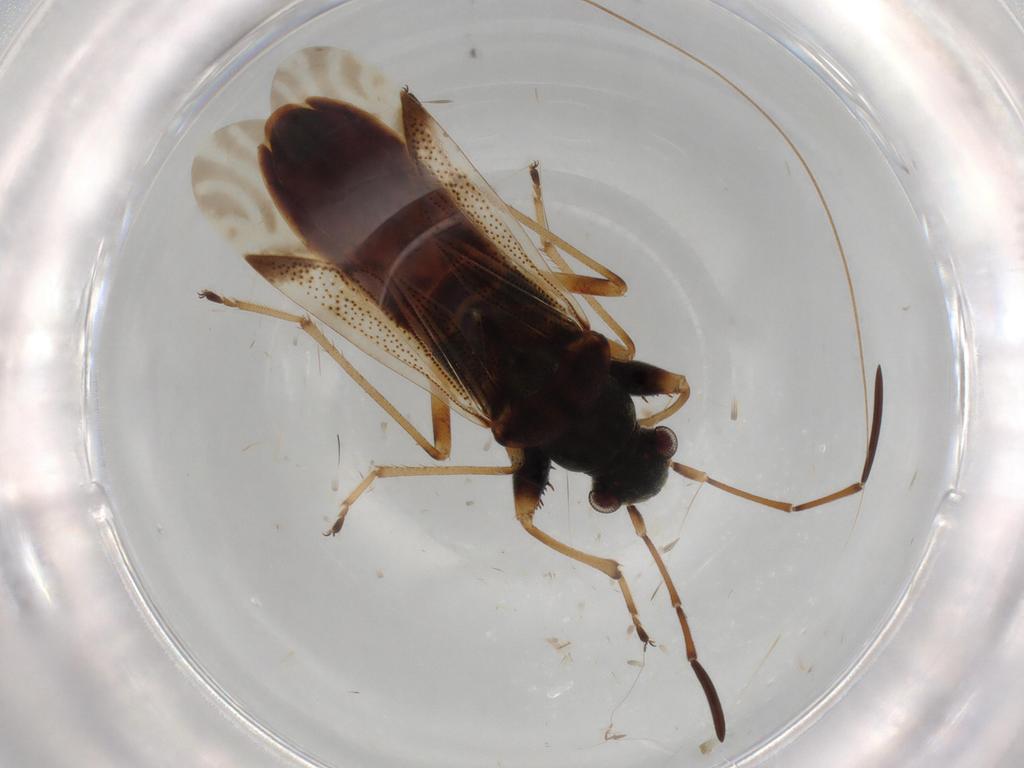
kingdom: Animalia
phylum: Arthropoda
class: Insecta
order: Hemiptera
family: Rhyparochromidae
